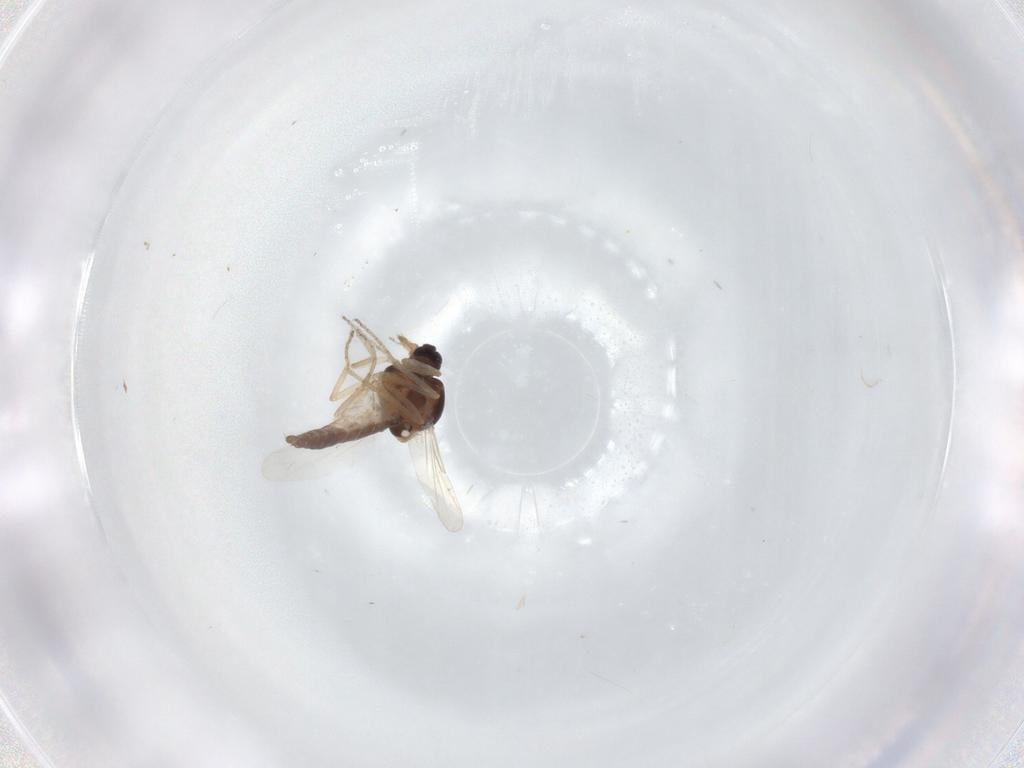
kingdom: Animalia
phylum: Arthropoda
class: Insecta
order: Diptera
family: Ceratopogonidae
